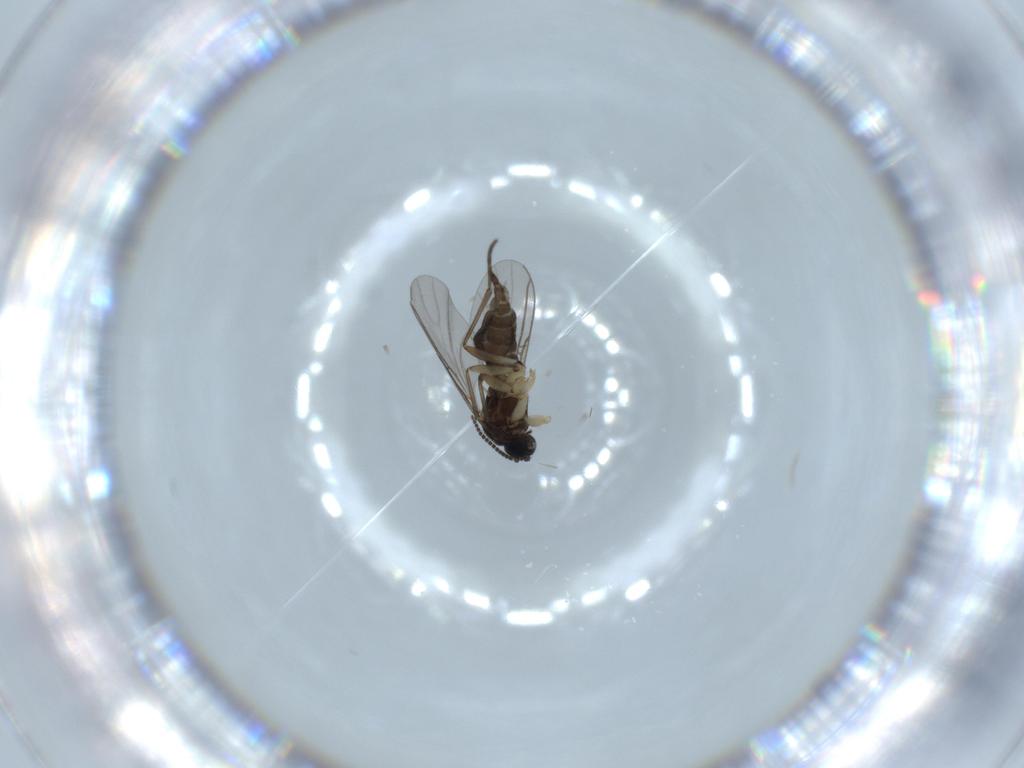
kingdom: Animalia
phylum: Arthropoda
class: Insecta
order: Diptera
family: Sciaridae
